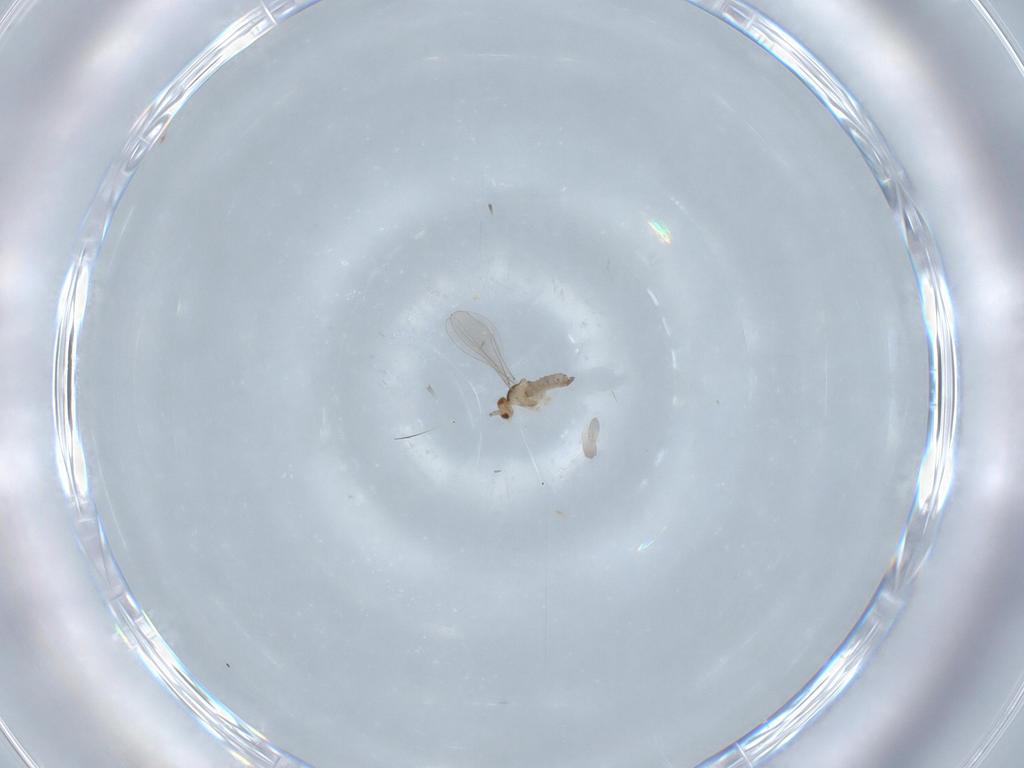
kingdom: Animalia
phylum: Arthropoda
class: Insecta
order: Diptera
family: Cecidomyiidae
